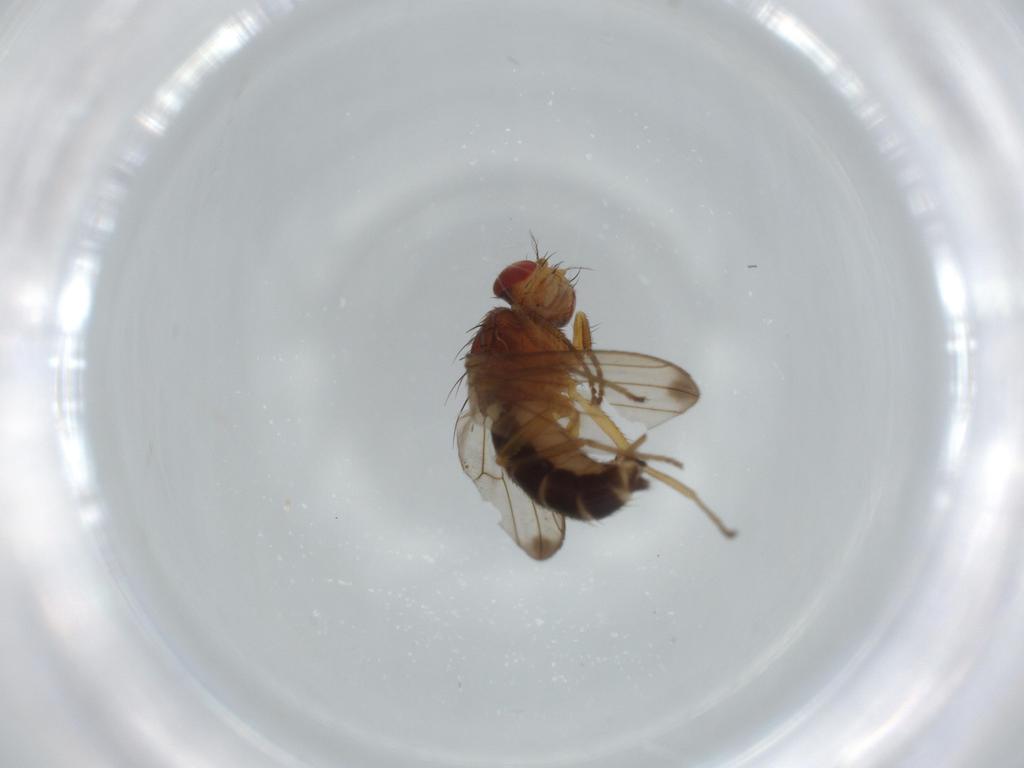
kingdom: Animalia
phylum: Arthropoda
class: Insecta
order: Diptera
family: Drosophilidae
